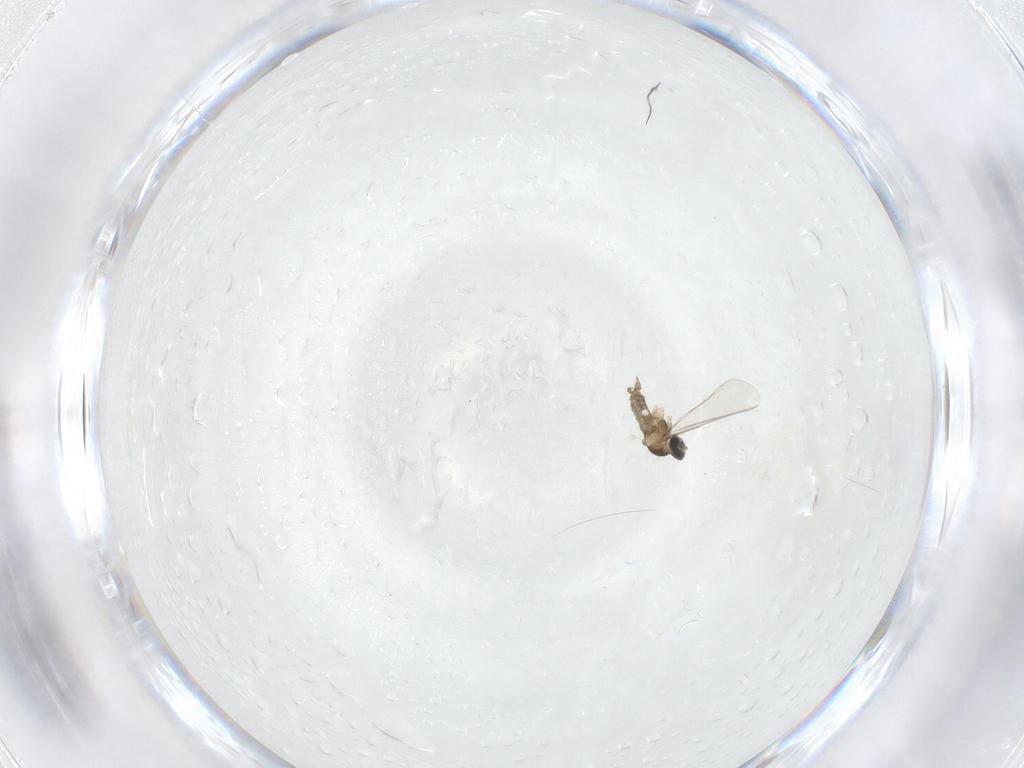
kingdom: Animalia
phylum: Arthropoda
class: Insecta
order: Diptera
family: Cecidomyiidae
